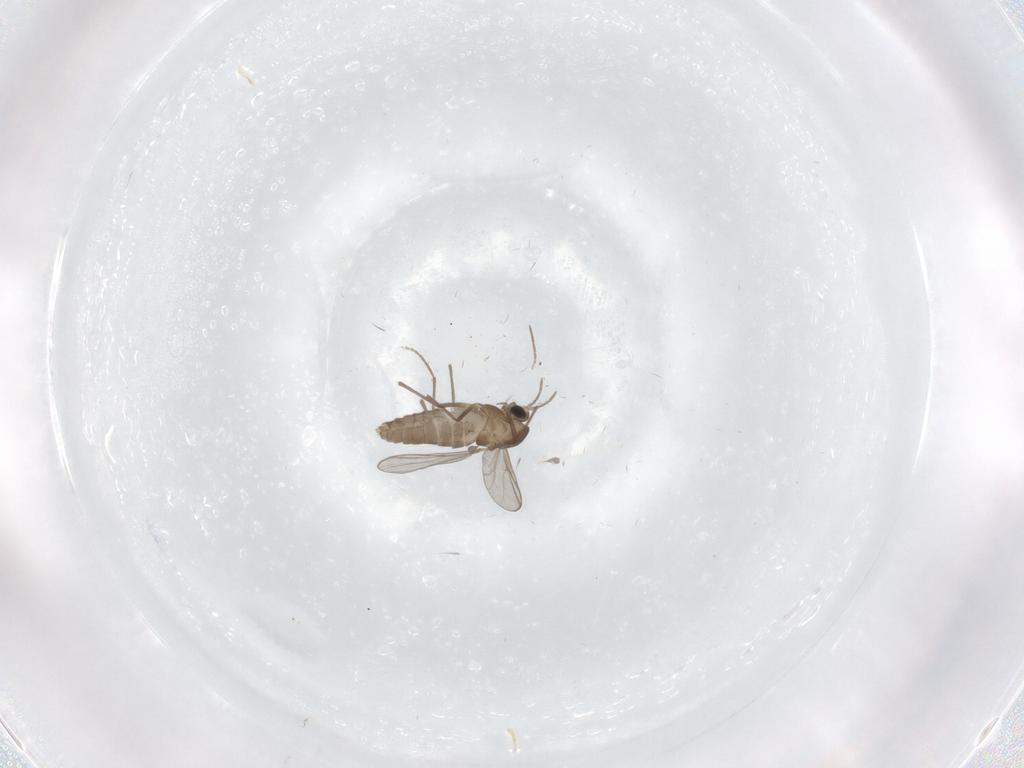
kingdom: Animalia
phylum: Arthropoda
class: Insecta
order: Diptera
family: Chironomidae
